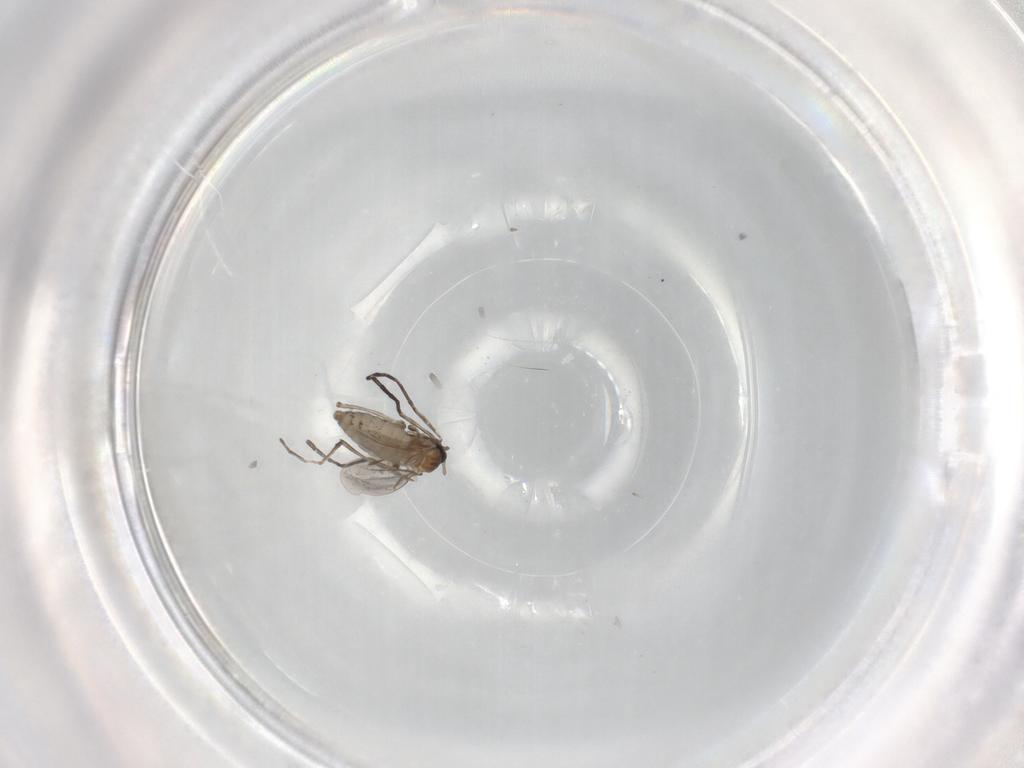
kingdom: Animalia
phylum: Arthropoda
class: Insecta
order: Diptera
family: Cecidomyiidae
